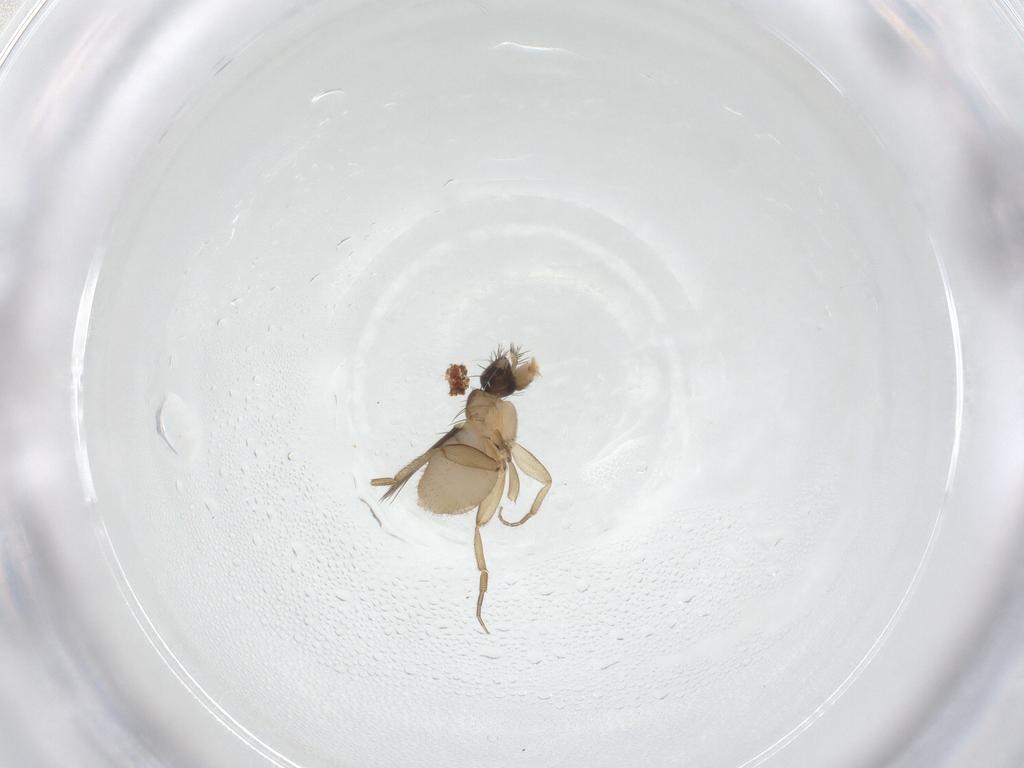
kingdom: Animalia
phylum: Arthropoda
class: Insecta
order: Diptera
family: Phoridae
